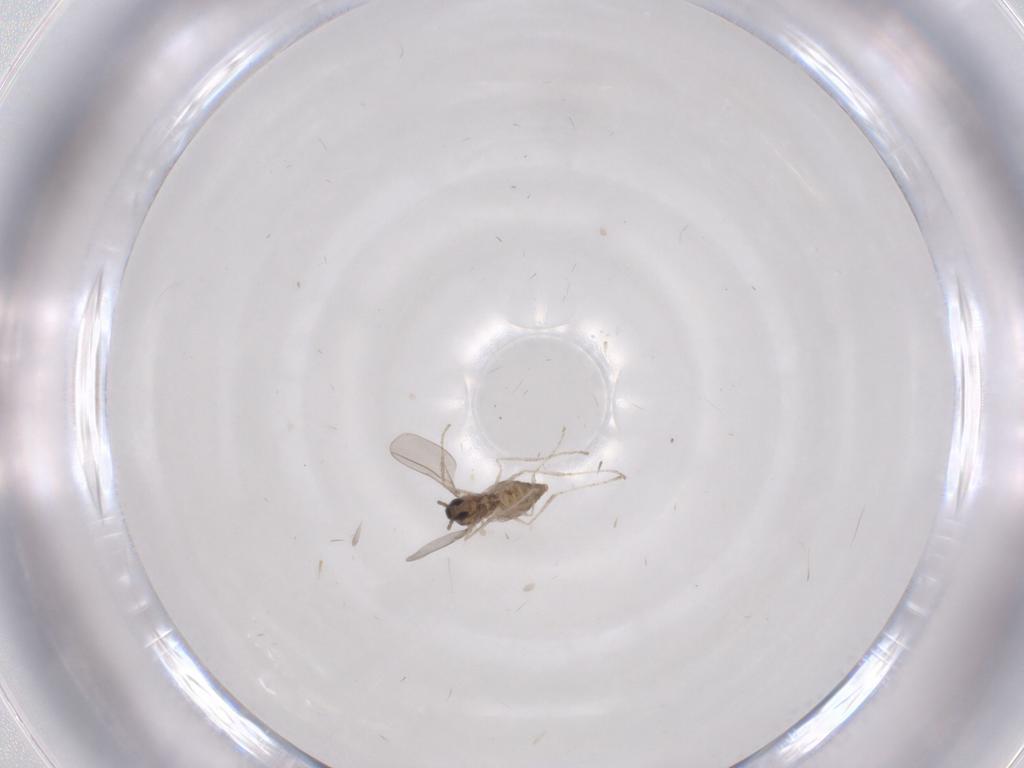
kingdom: Animalia
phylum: Arthropoda
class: Insecta
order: Diptera
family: Cecidomyiidae
